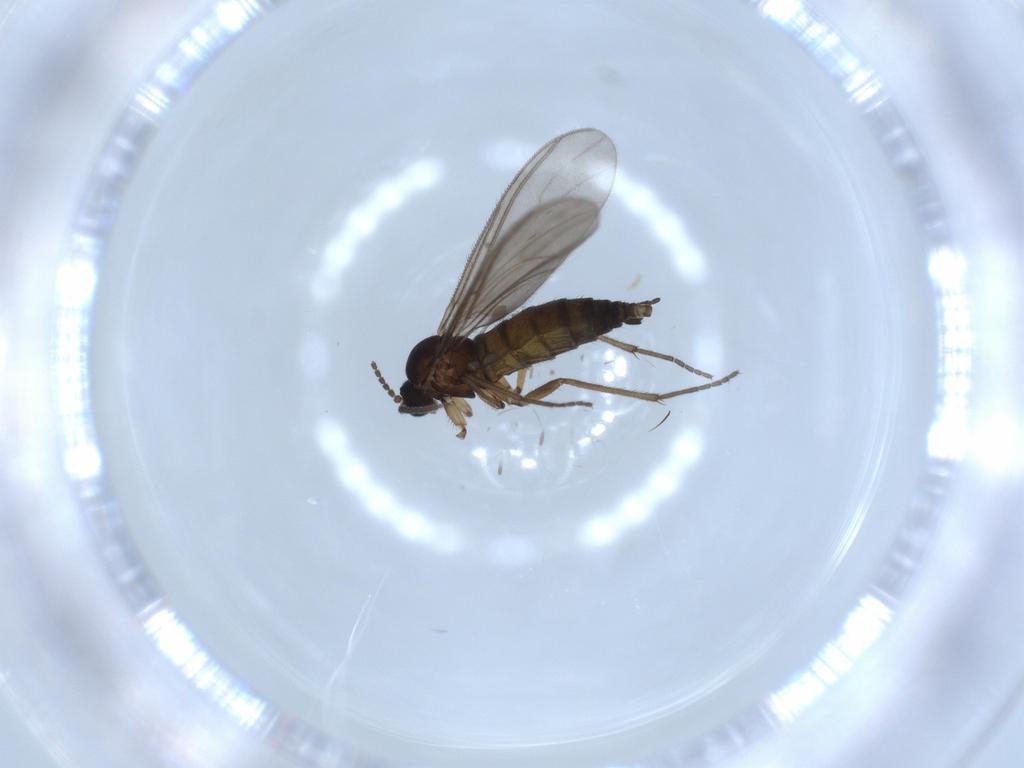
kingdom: Animalia
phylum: Arthropoda
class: Insecta
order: Diptera
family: Sciaridae
